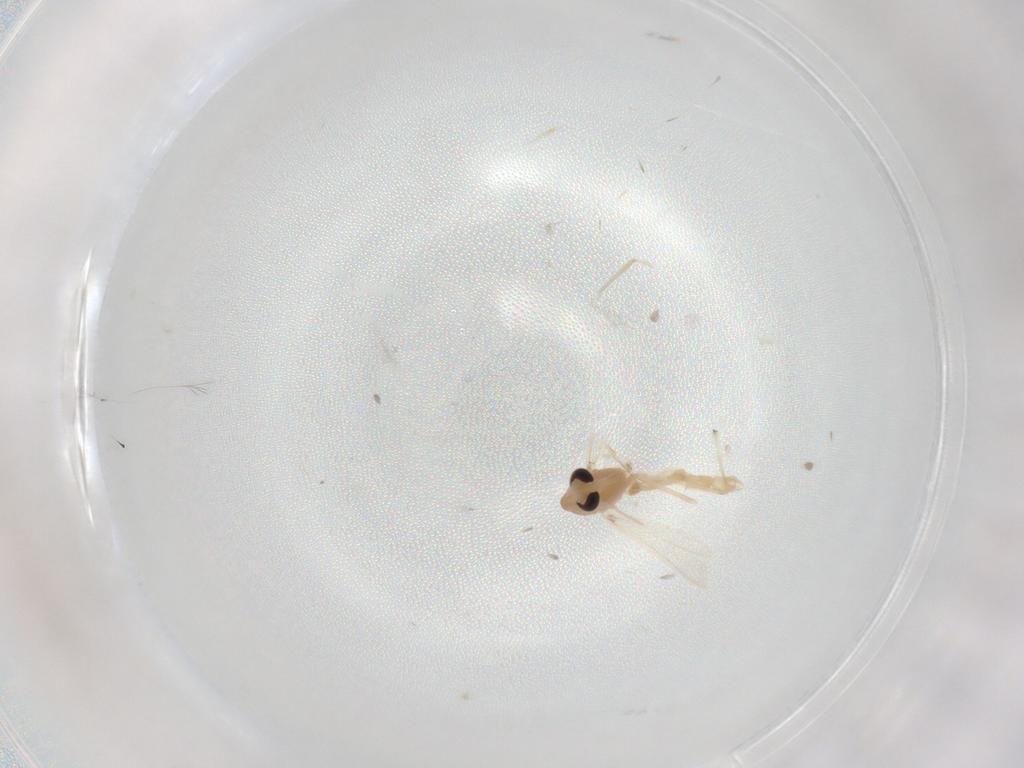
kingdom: Animalia
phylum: Arthropoda
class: Insecta
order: Diptera
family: Chironomidae
